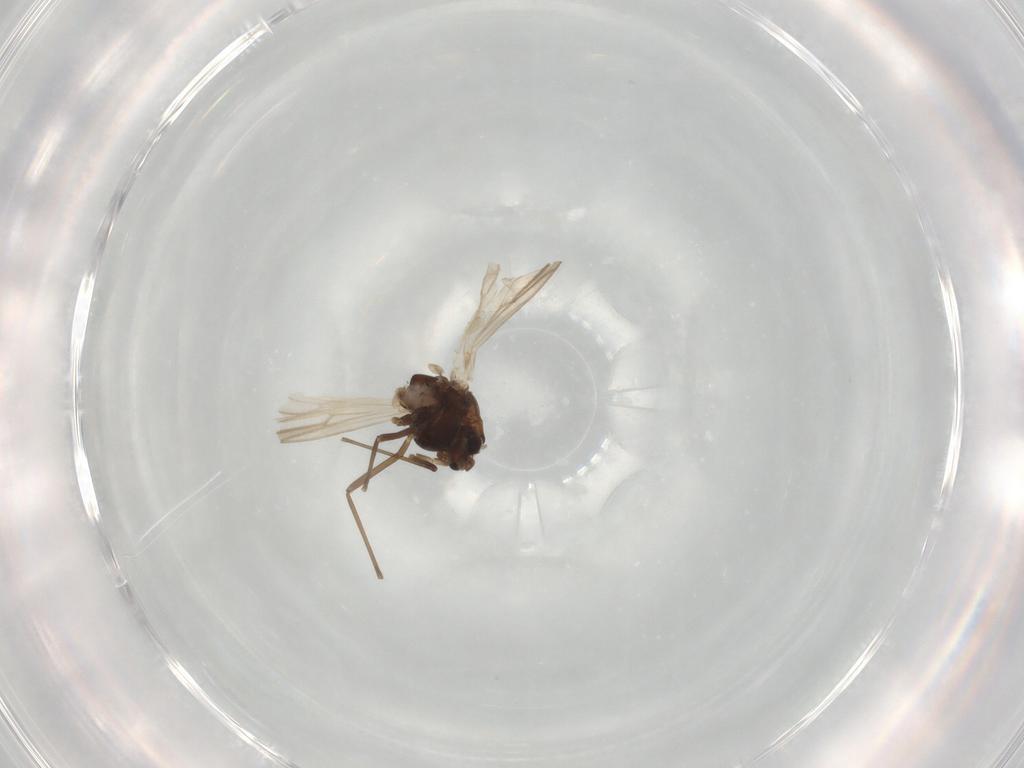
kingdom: Animalia
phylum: Arthropoda
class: Insecta
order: Diptera
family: Chironomidae
